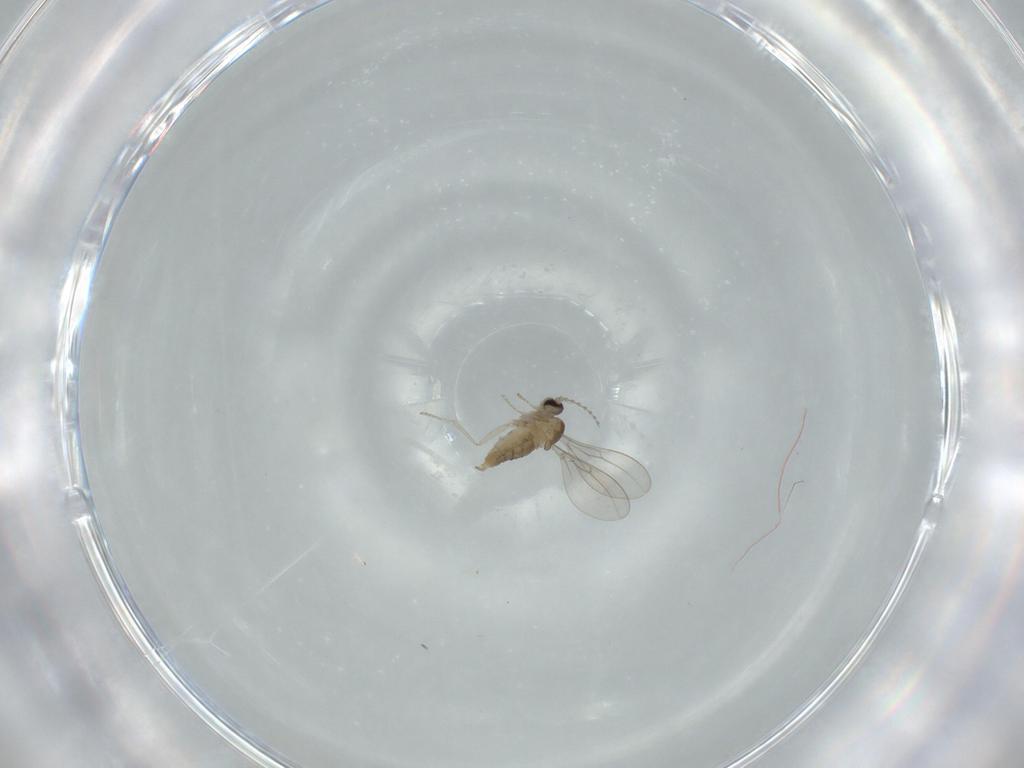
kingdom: Animalia
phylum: Arthropoda
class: Insecta
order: Diptera
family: Cecidomyiidae
